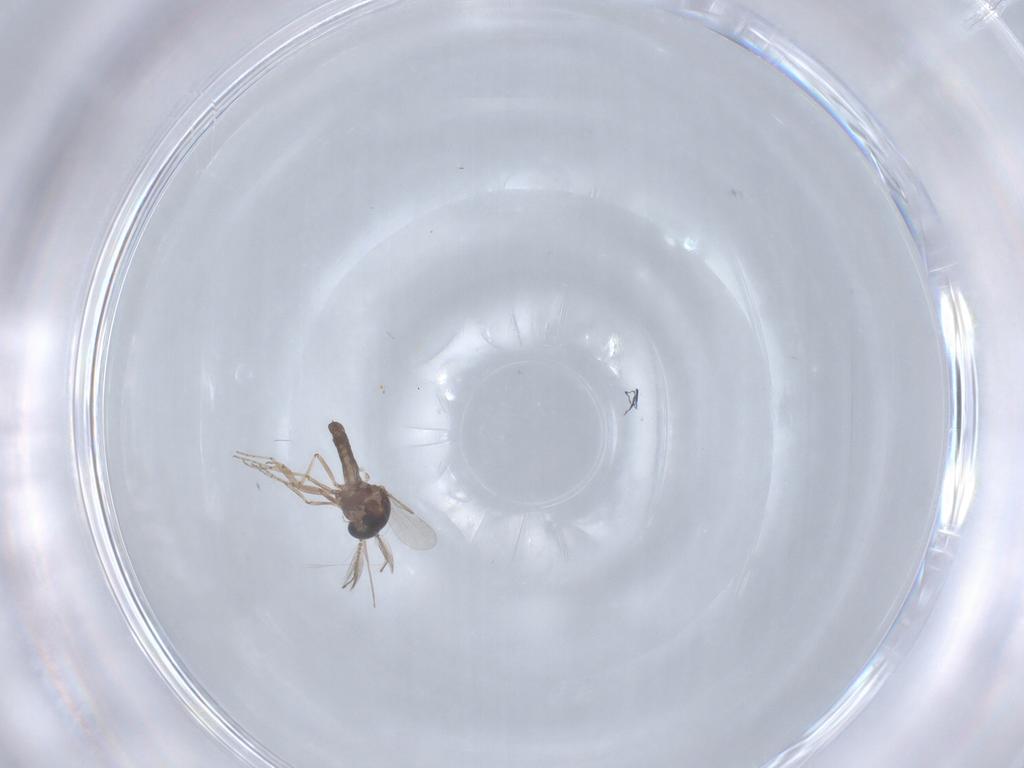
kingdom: Animalia
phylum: Arthropoda
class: Insecta
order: Diptera
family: Ceratopogonidae
